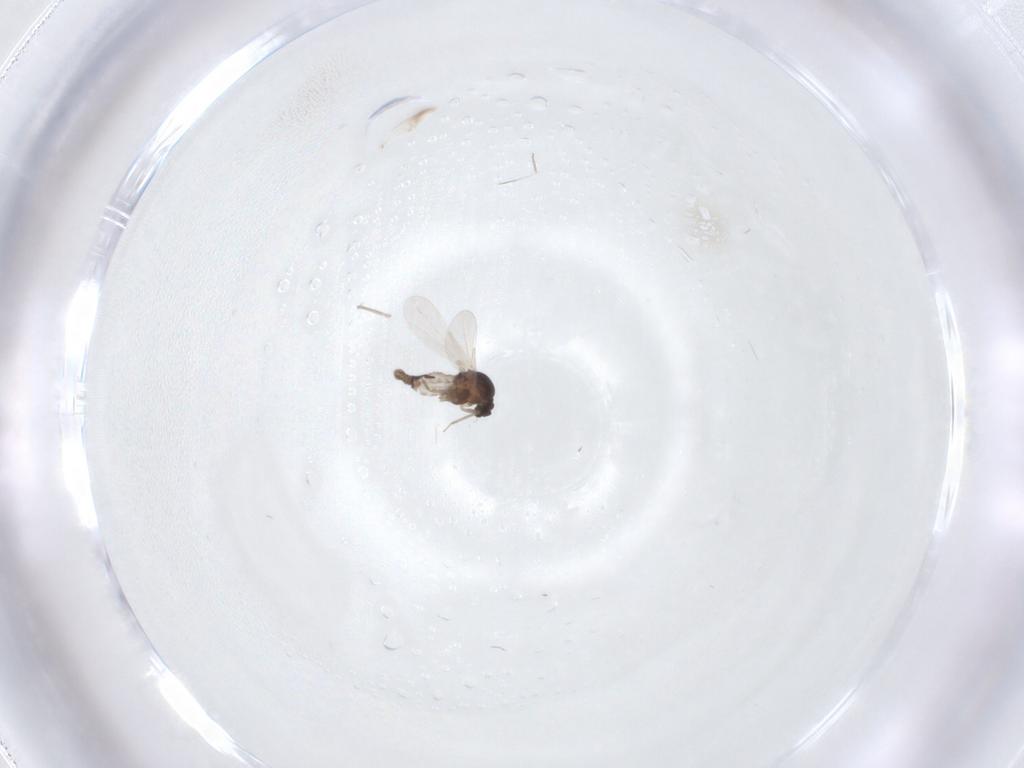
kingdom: Animalia
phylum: Arthropoda
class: Insecta
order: Diptera
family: Ceratopogonidae
